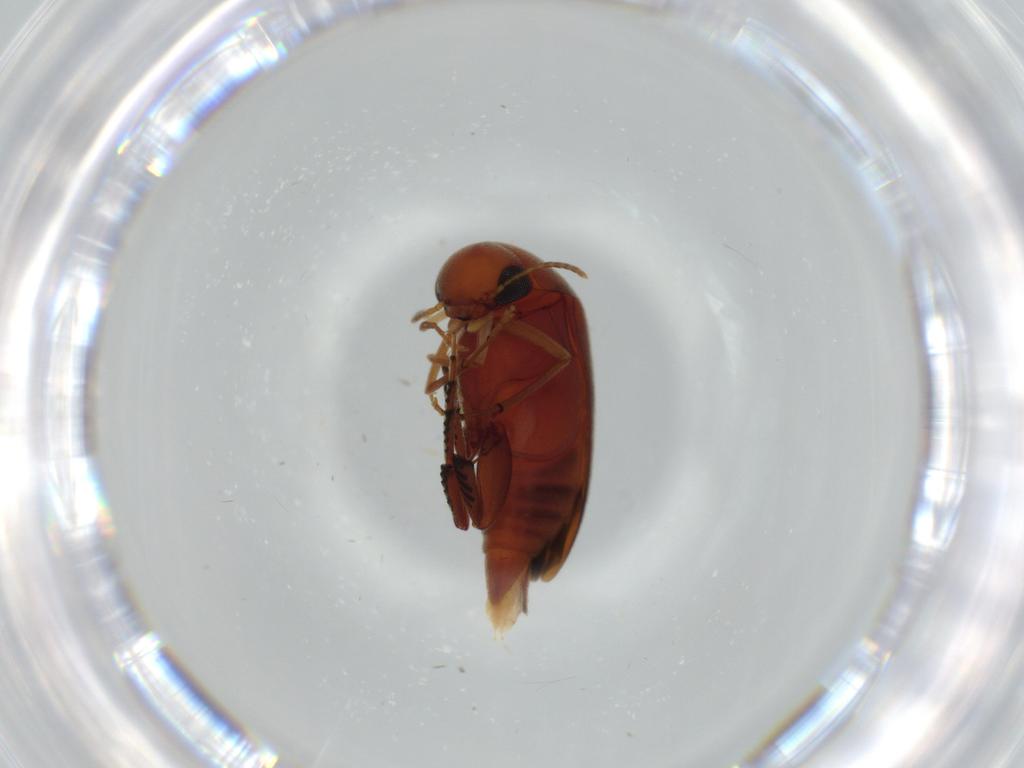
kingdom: Animalia
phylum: Arthropoda
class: Insecta
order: Coleoptera
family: Curculionidae
